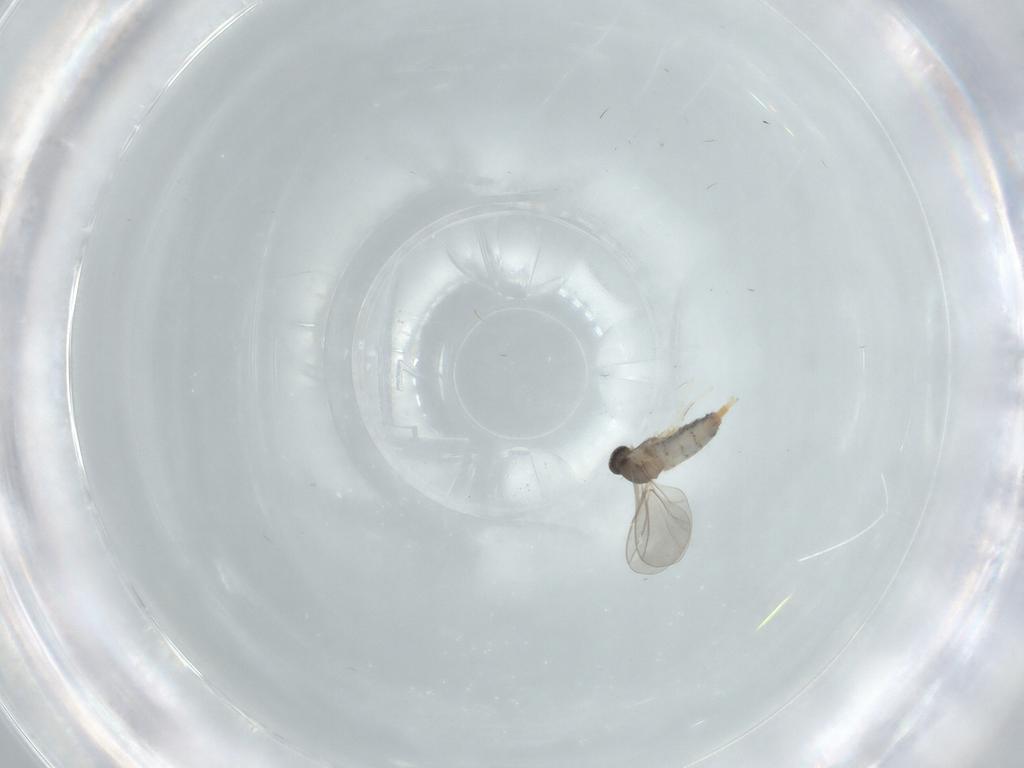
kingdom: Animalia
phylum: Arthropoda
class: Insecta
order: Diptera
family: Cecidomyiidae
